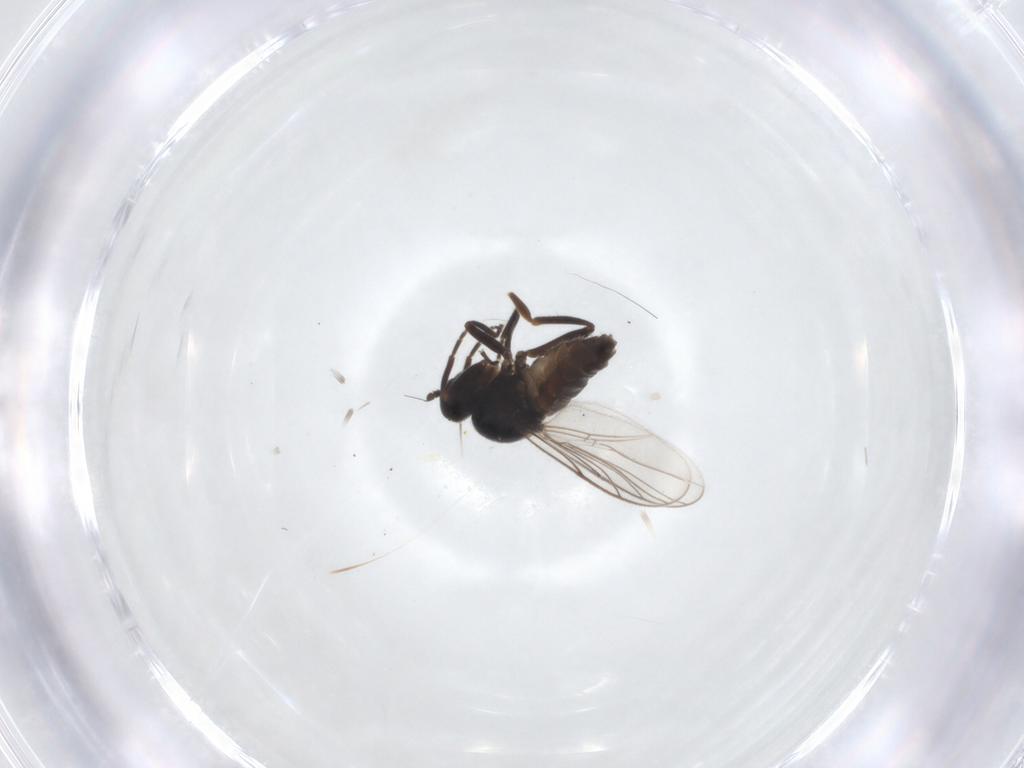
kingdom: Animalia
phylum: Arthropoda
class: Insecta
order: Diptera
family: Hybotidae
